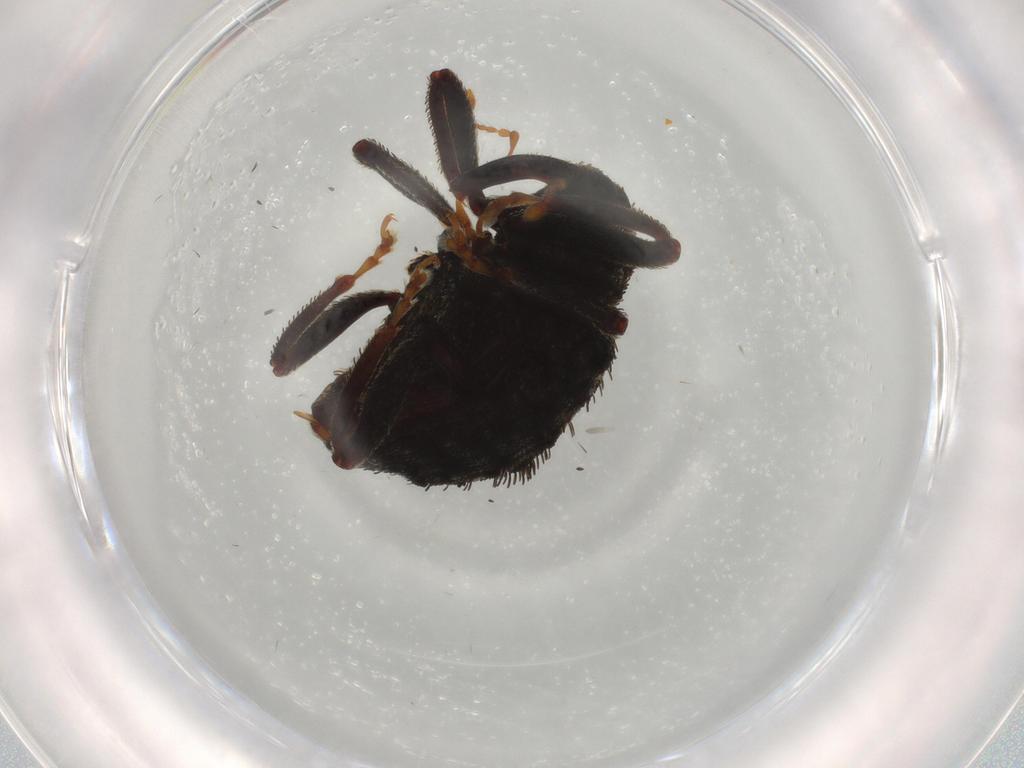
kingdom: Animalia
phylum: Arthropoda
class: Insecta
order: Coleoptera
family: Curculionidae
